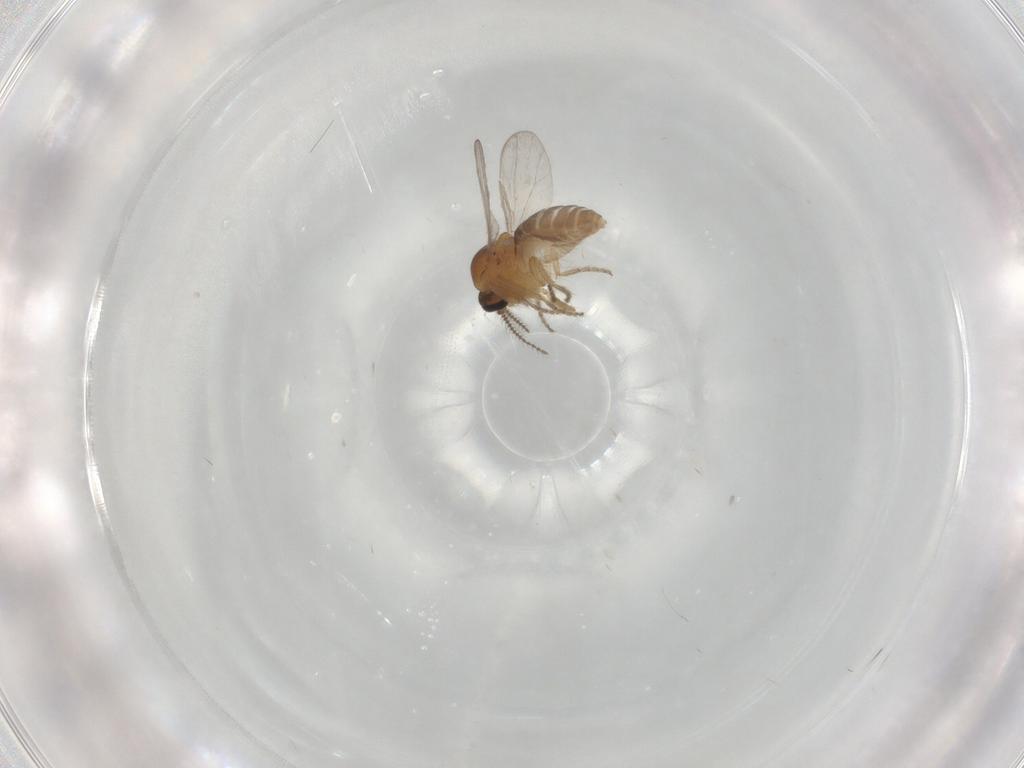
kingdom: Animalia
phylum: Arthropoda
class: Insecta
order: Diptera
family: Ceratopogonidae
